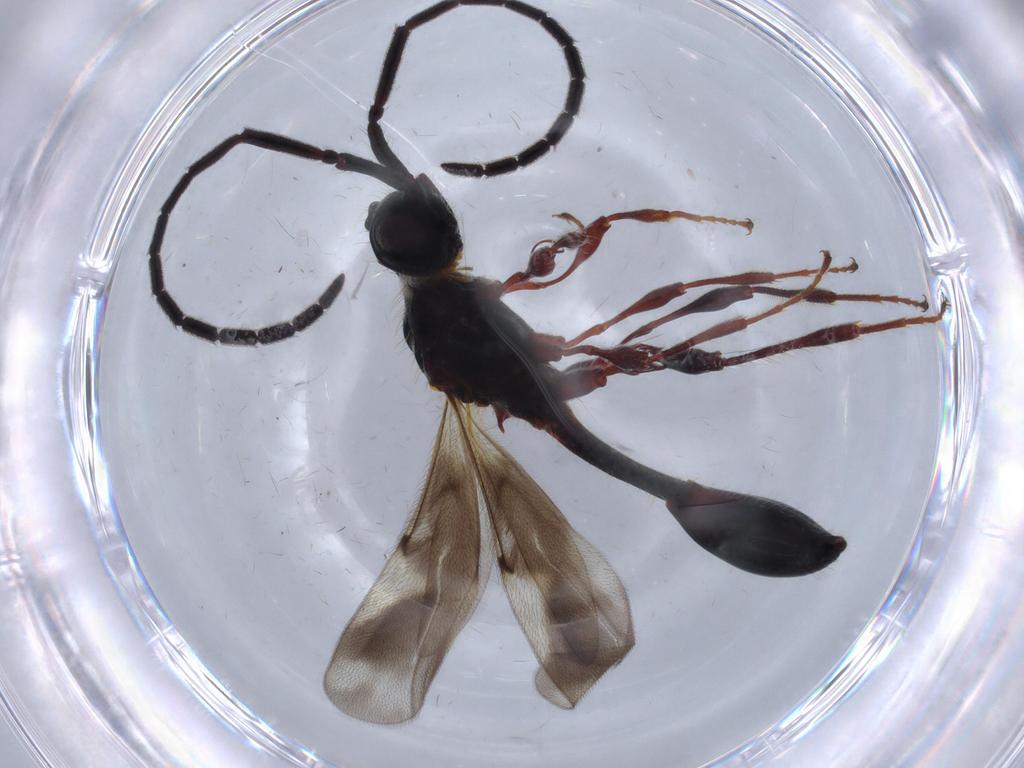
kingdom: Animalia
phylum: Arthropoda
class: Insecta
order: Hymenoptera
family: Diapriidae
